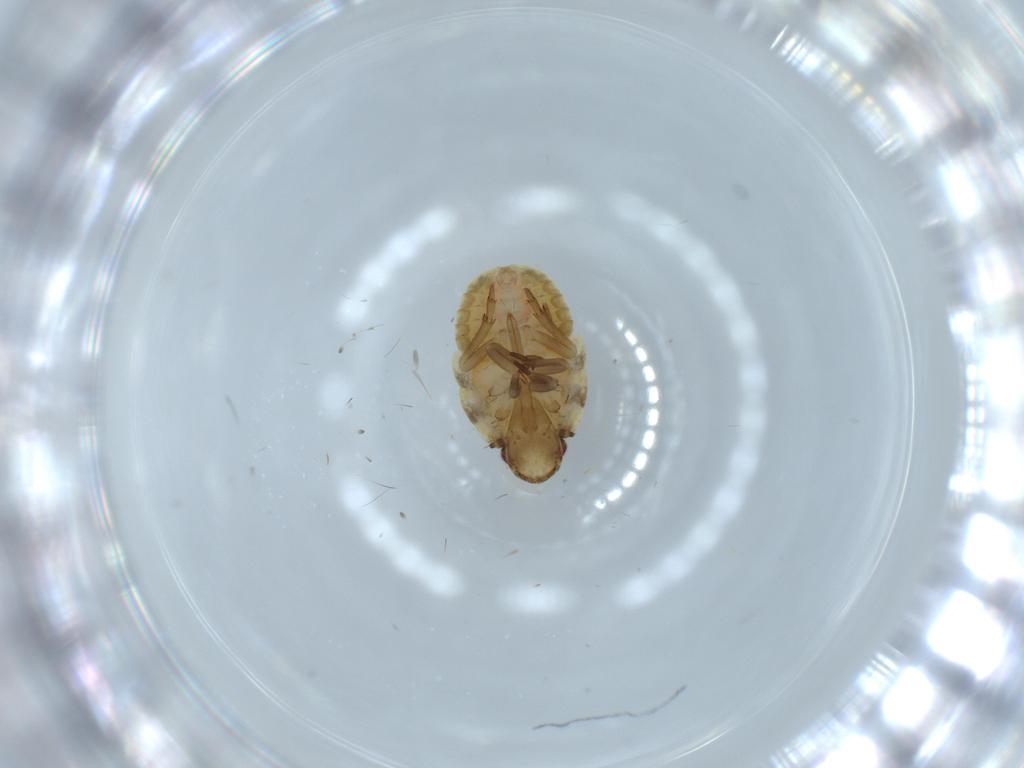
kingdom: Animalia
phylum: Arthropoda
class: Insecta
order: Hemiptera
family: Flatidae
